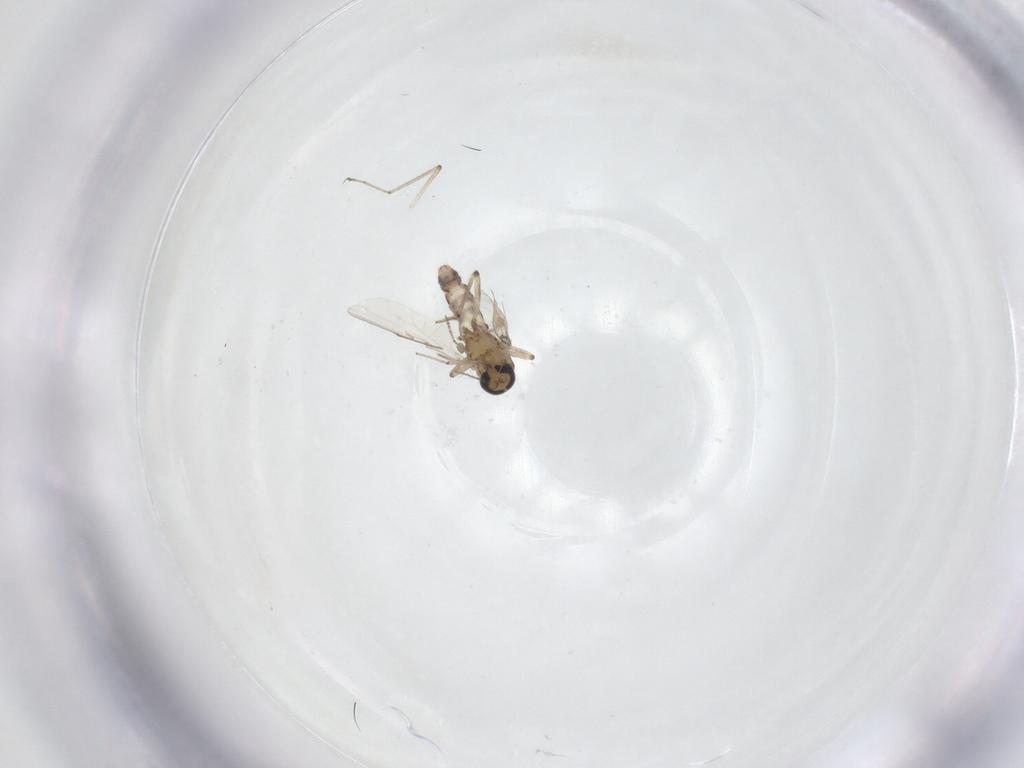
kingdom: Animalia
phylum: Arthropoda
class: Insecta
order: Diptera
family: Ceratopogonidae
